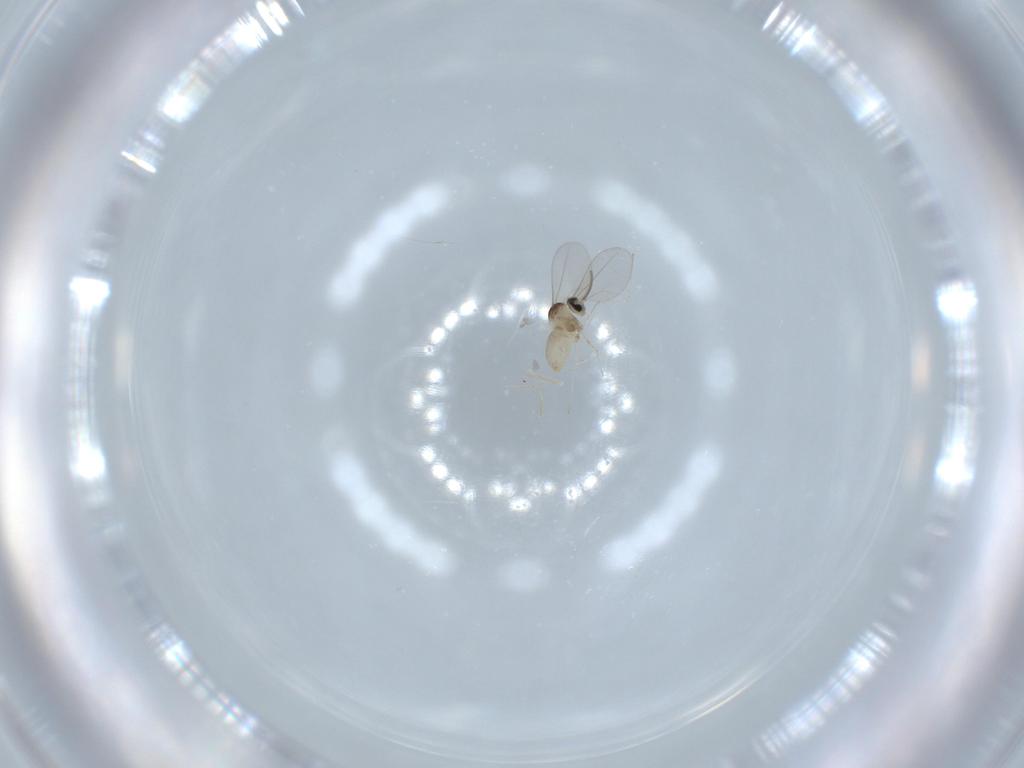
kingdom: Animalia
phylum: Arthropoda
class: Insecta
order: Diptera
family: Cecidomyiidae
